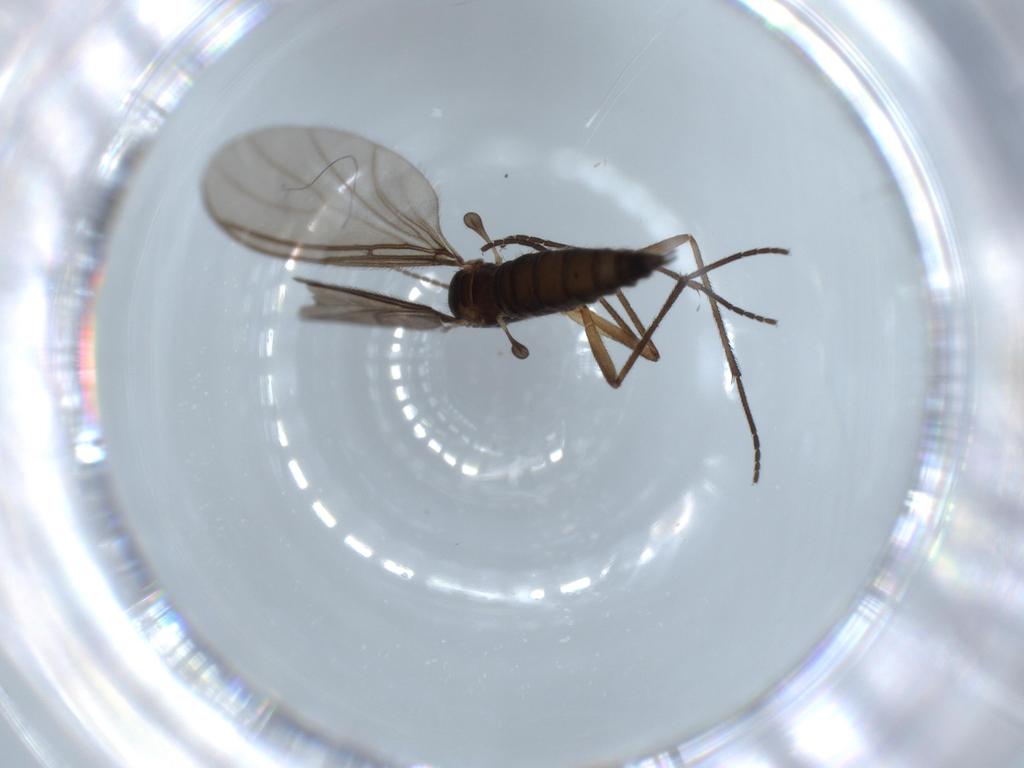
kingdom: Animalia
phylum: Arthropoda
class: Insecta
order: Diptera
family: Sciaridae
